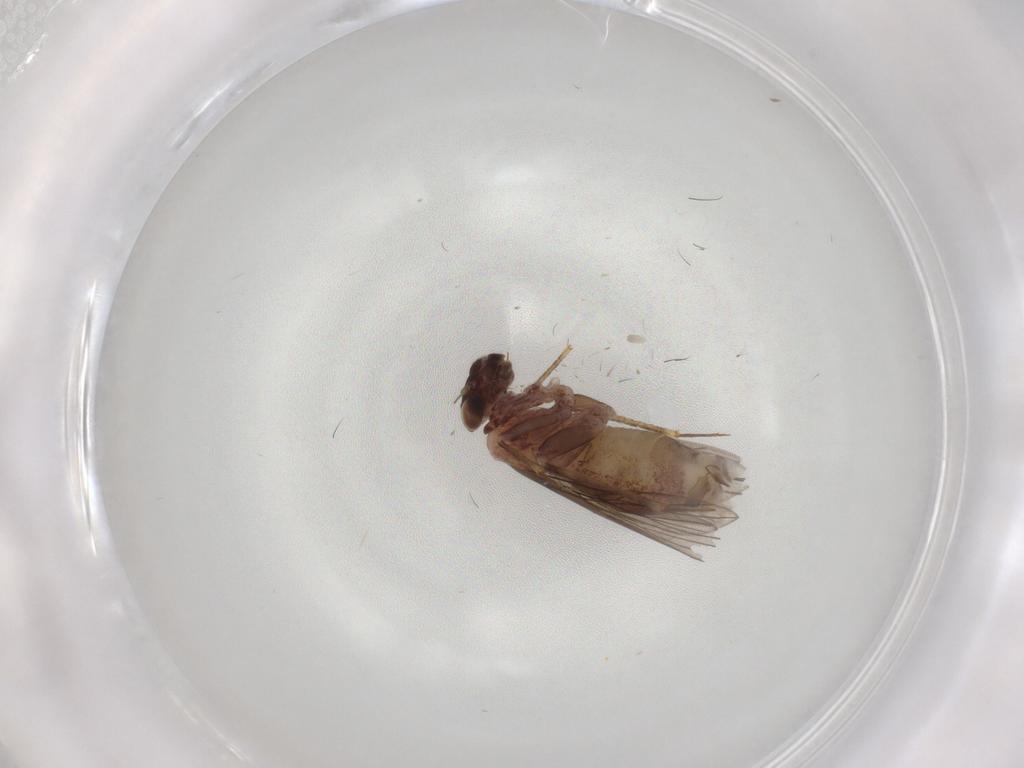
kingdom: Animalia
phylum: Arthropoda
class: Insecta
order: Psocodea
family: Lepidopsocidae
